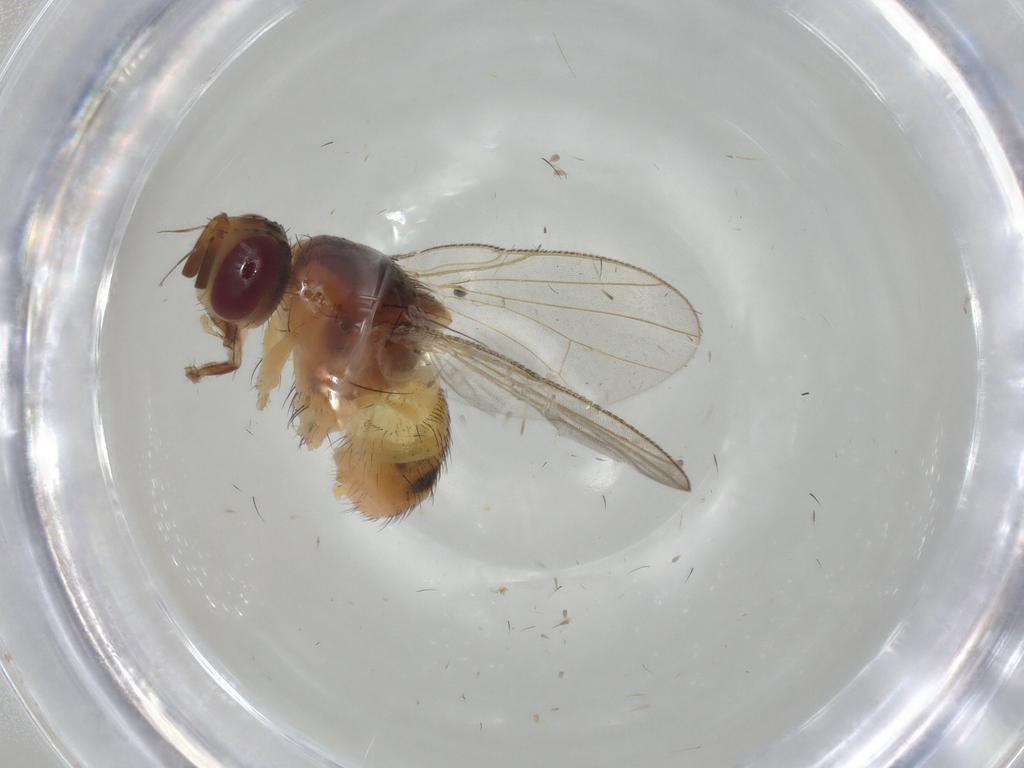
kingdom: Animalia
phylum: Arthropoda
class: Insecta
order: Diptera
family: Muscidae
